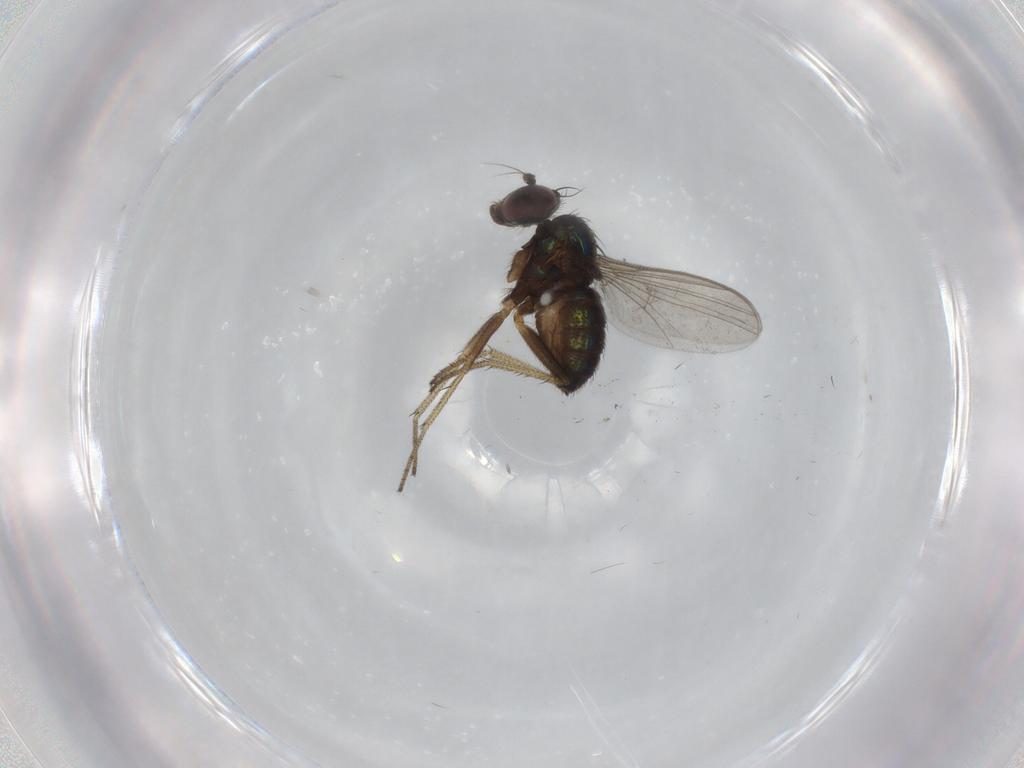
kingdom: Animalia
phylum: Arthropoda
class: Insecta
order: Diptera
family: Dolichopodidae
